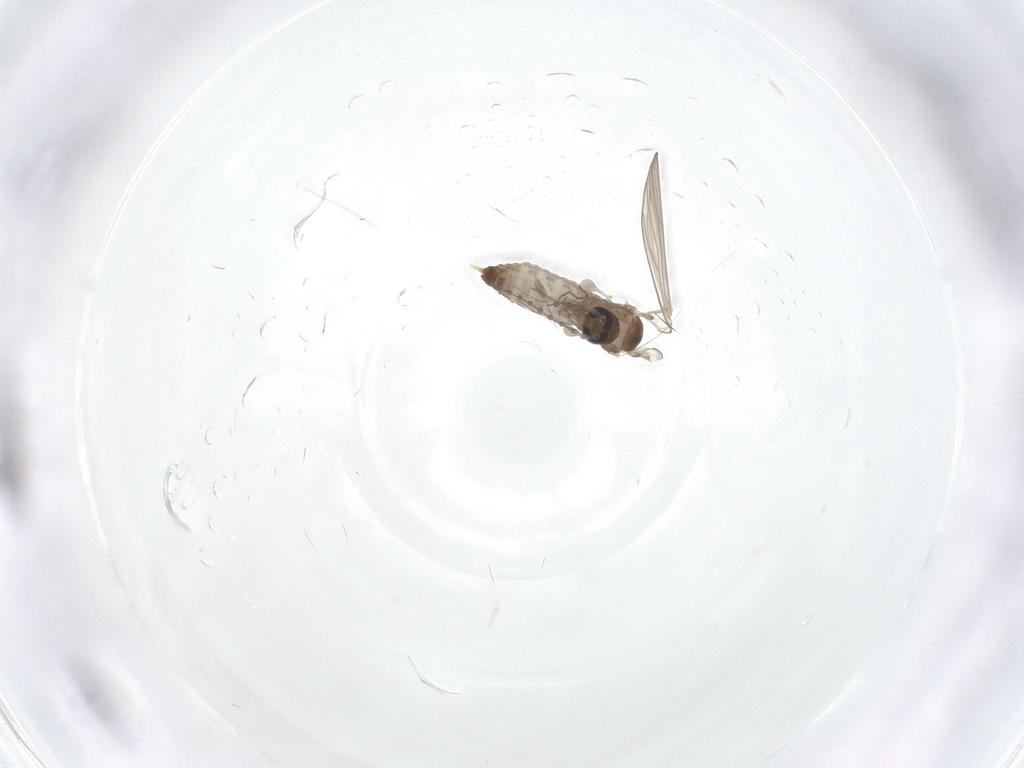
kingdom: Animalia
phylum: Arthropoda
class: Insecta
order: Diptera
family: Psychodidae
